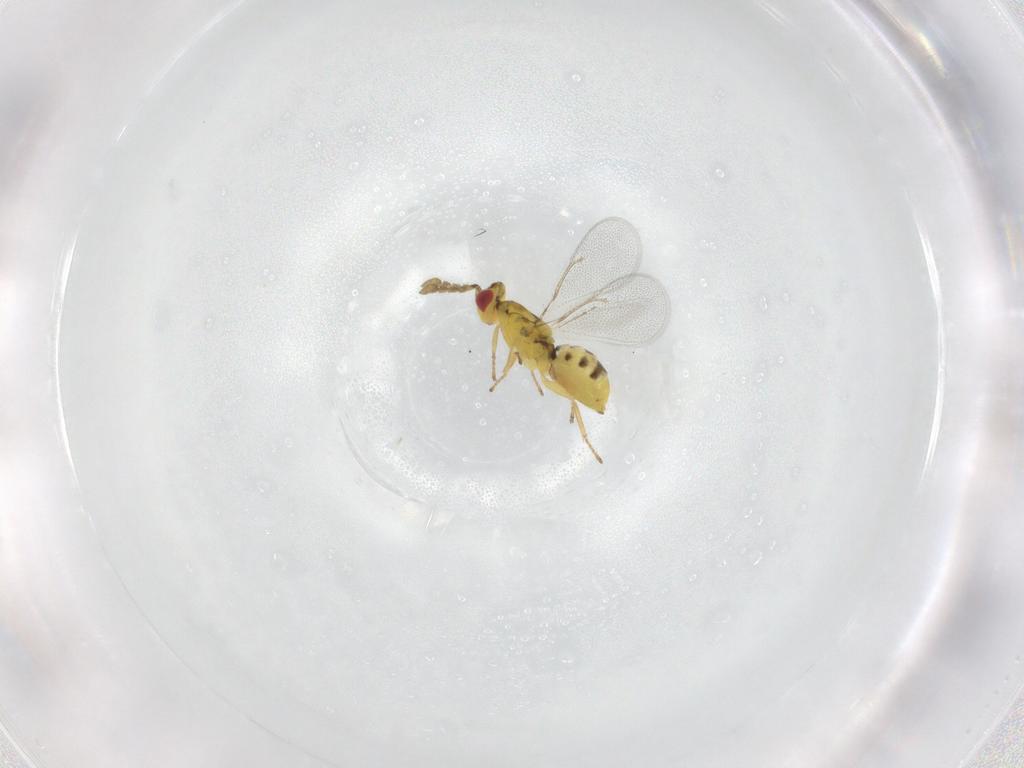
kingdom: Animalia
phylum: Arthropoda
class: Insecta
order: Hymenoptera
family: Eulophidae
